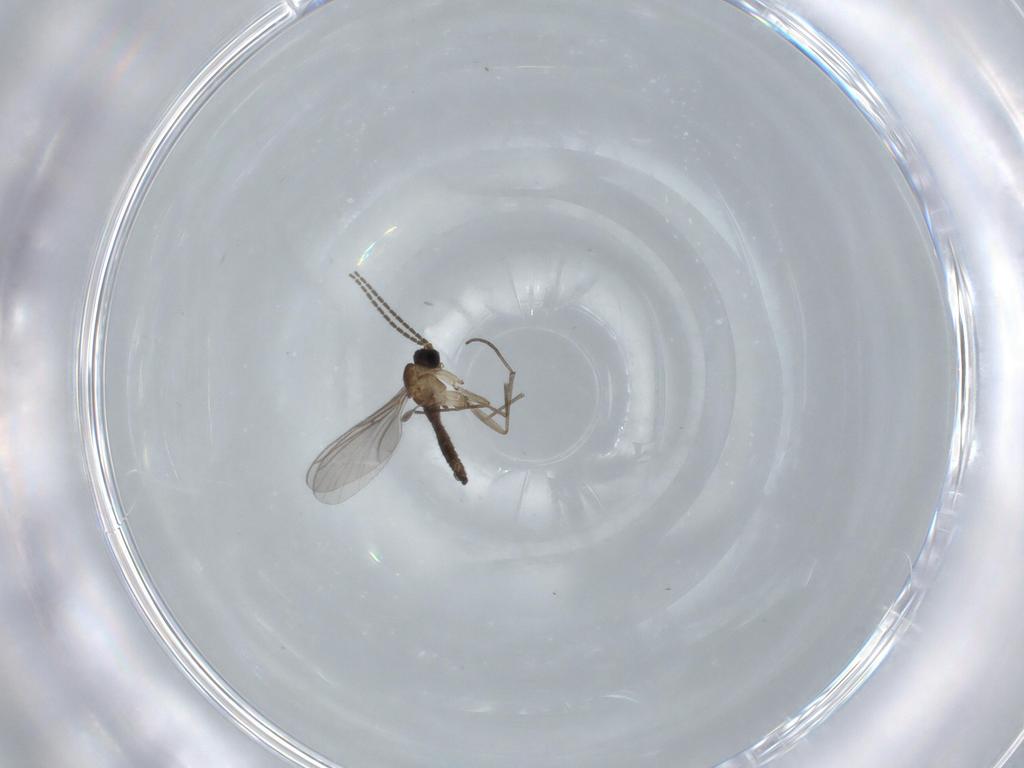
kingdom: Animalia
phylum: Arthropoda
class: Insecta
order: Diptera
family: Sciaridae
